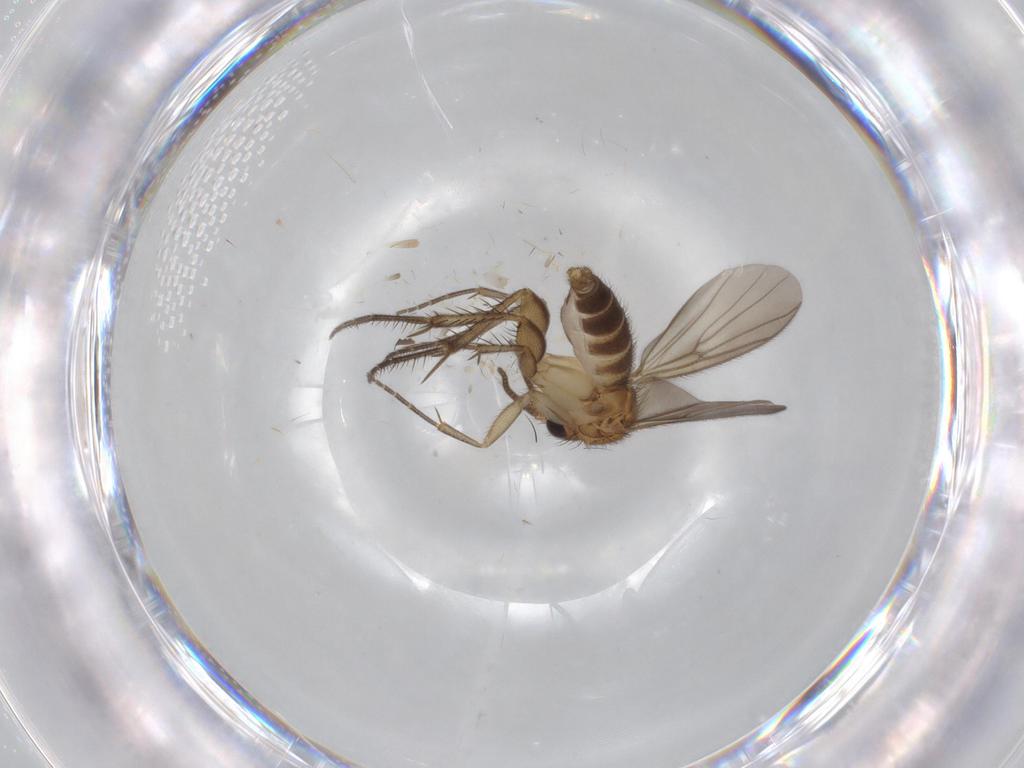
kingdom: Animalia
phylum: Arthropoda
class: Insecta
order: Diptera
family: Mycetophilidae
